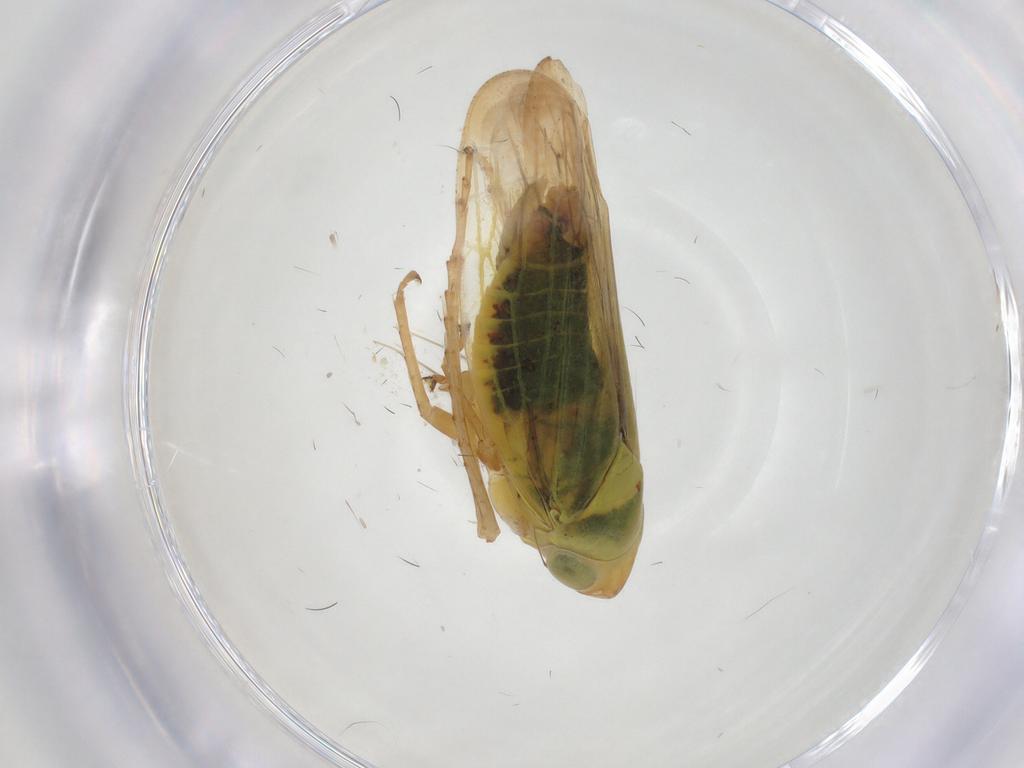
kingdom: Animalia
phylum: Arthropoda
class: Insecta
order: Hemiptera
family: Cicadellidae
